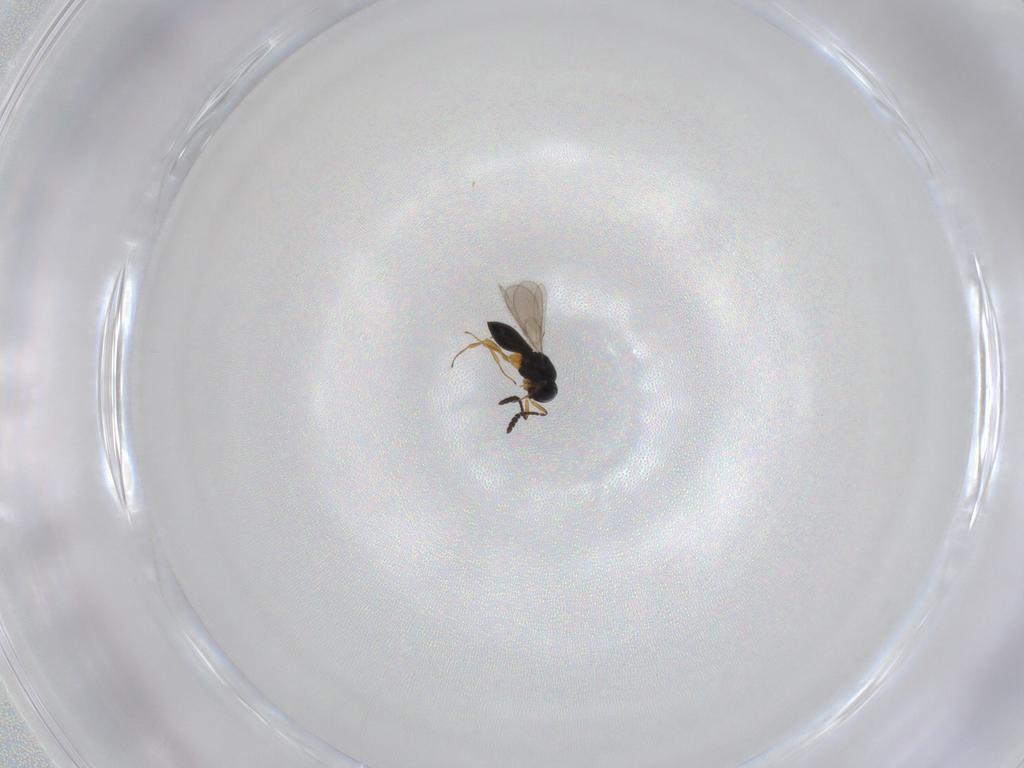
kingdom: Animalia
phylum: Arthropoda
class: Insecta
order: Hymenoptera
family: Scelionidae
